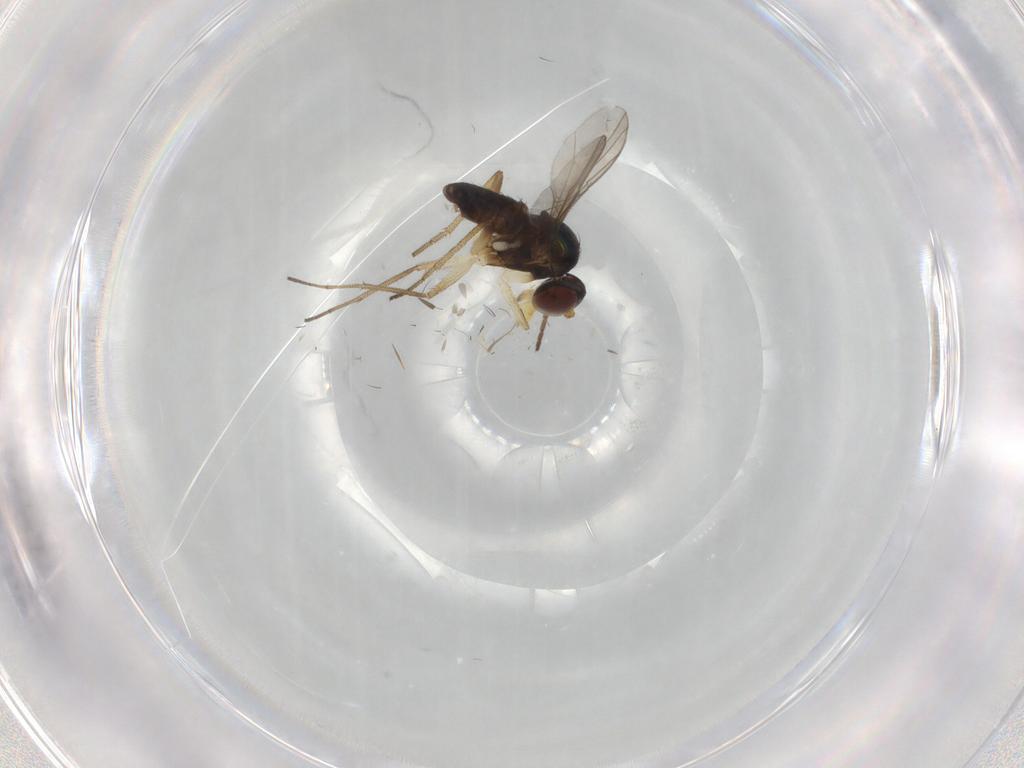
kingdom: Animalia
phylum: Arthropoda
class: Insecta
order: Diptera
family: Dolichopodidae
